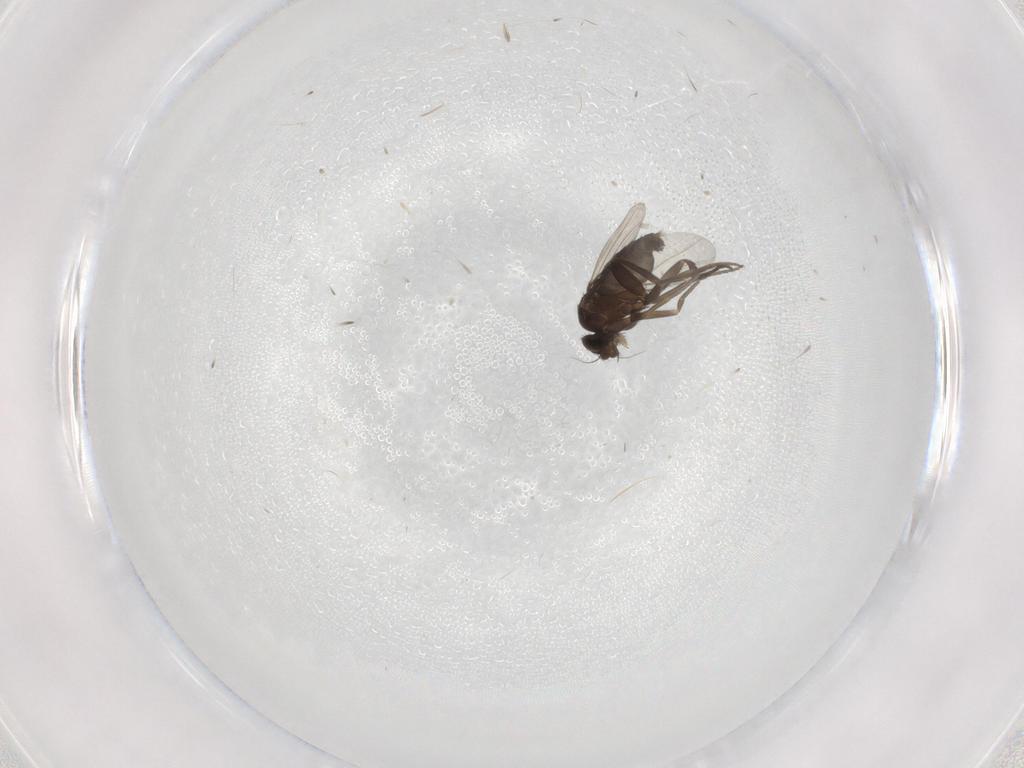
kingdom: Animalia
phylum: Arthropoda
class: Insecta
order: Diptera
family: Phoridae
